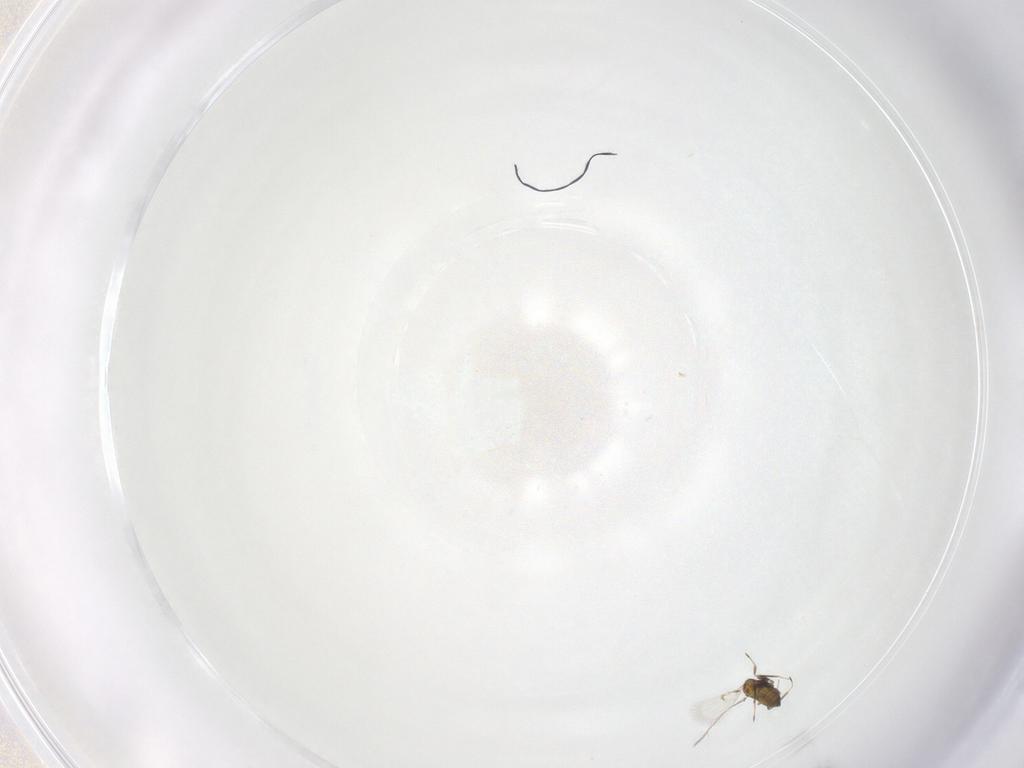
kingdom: Animalia
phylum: Arthropoda
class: Insecta
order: Hymenoptera
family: Trichogrammatidae
